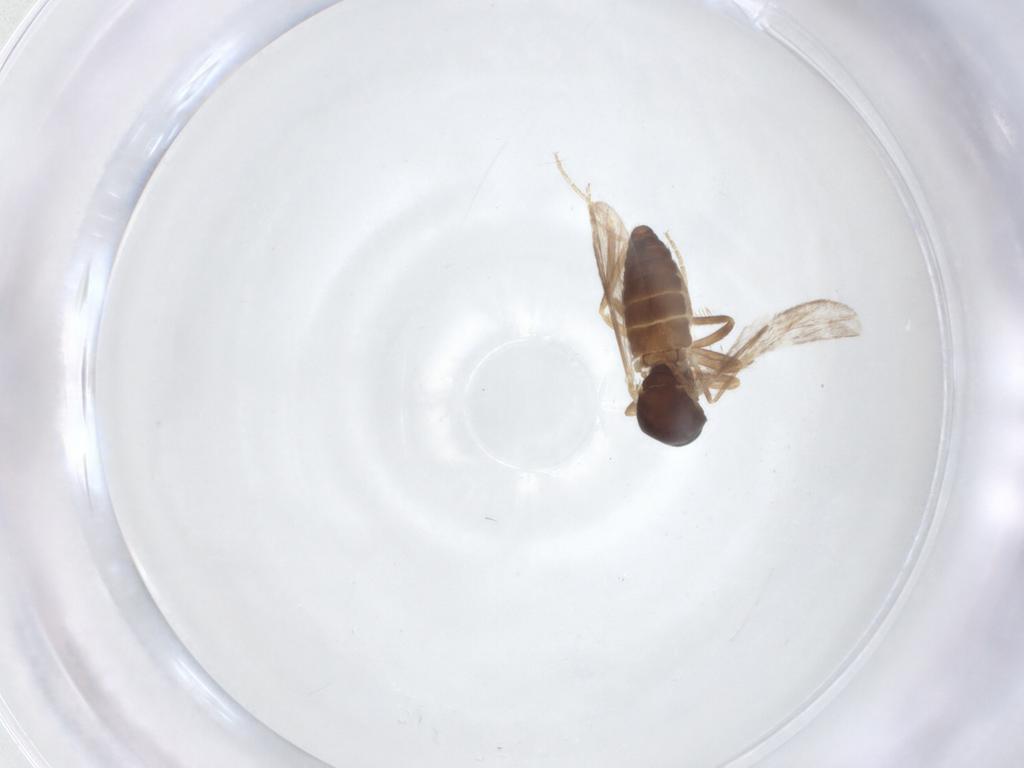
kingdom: Animalia
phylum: Arthropoda
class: Insecta
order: Diptera
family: Ceratopogonidae
